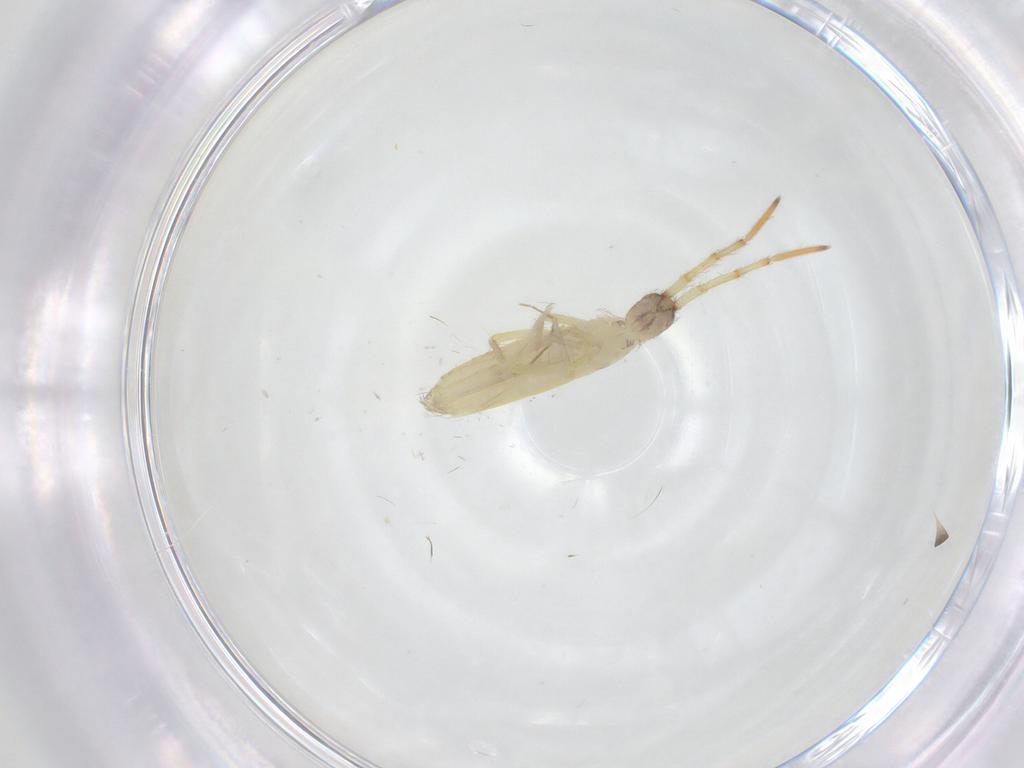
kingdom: Animalia
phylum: Arthropoda
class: Collembola
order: Entomobryomorpha
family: Entomobryidae
